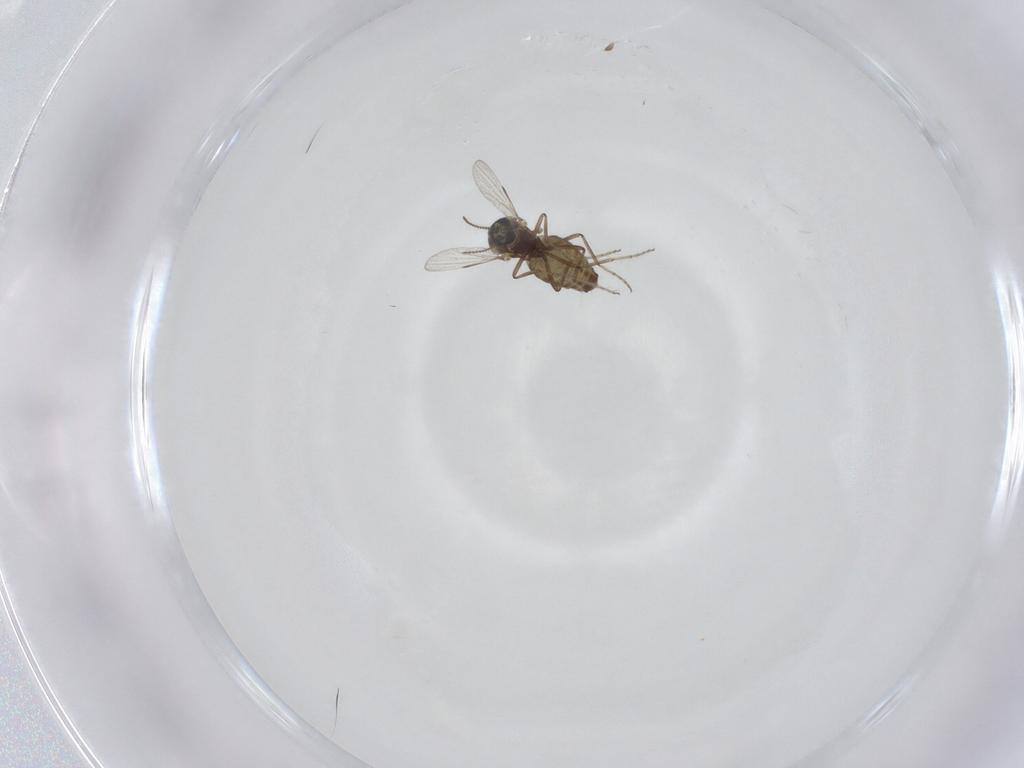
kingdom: Animalia
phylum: Arthropoda
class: Insecta
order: Diptera
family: Ceratopogonidae
